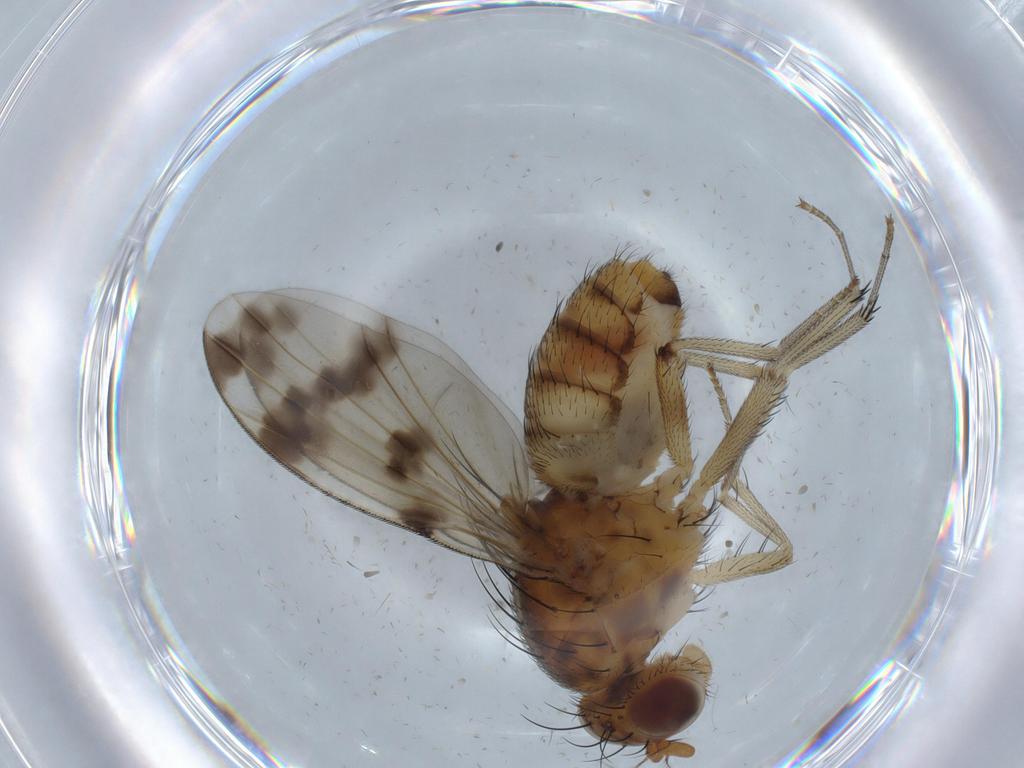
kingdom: Animalia
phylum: Arthropoda
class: Insecta
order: Diptera
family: Lauxaniidae
